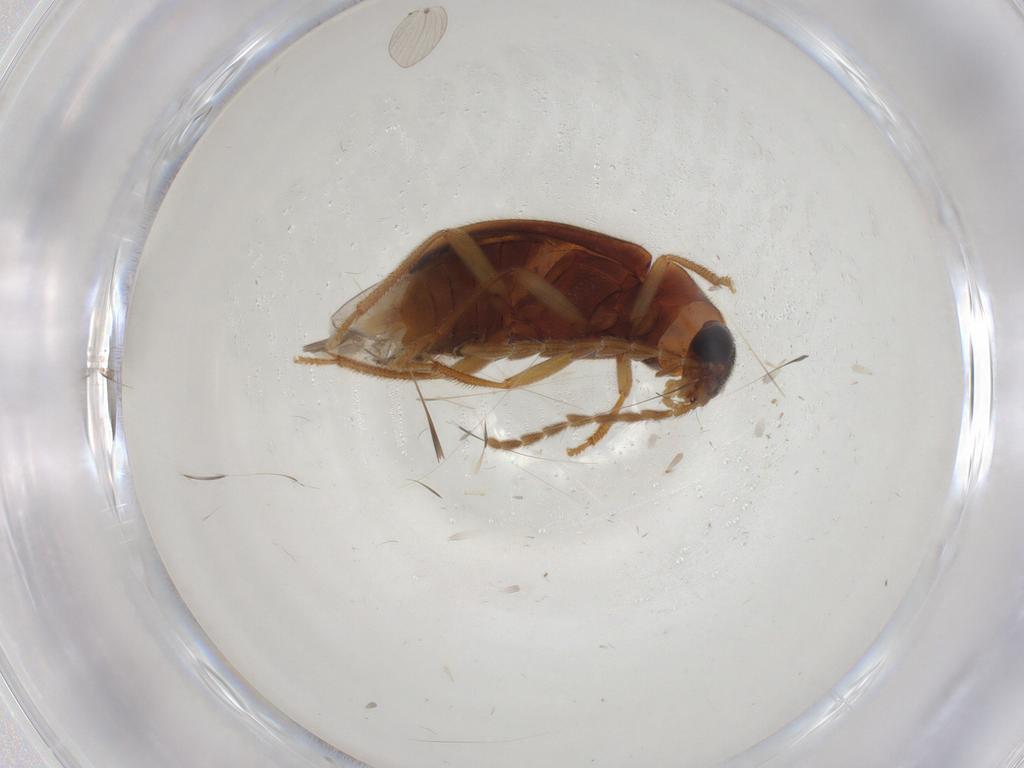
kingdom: Animalia
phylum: Arthropoda
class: Insecta
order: Coleoptera
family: Ptilodactylidae
